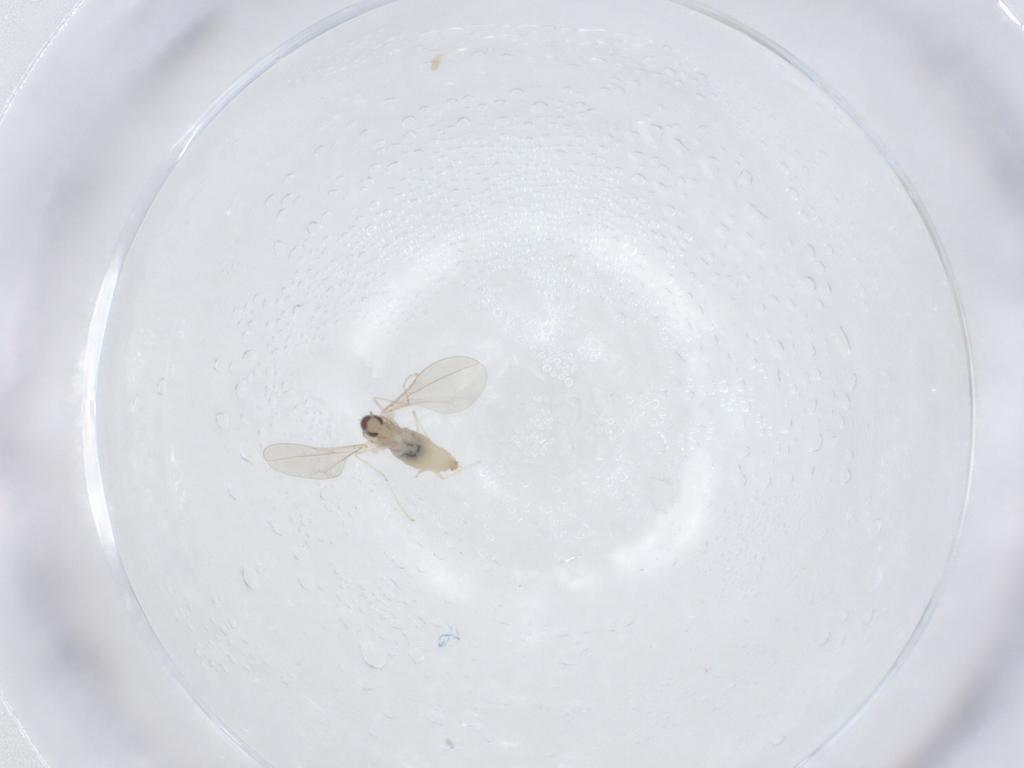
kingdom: Animalia
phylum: Arthropoda
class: Insecta
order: Diptera
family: Cecidomyiidae
